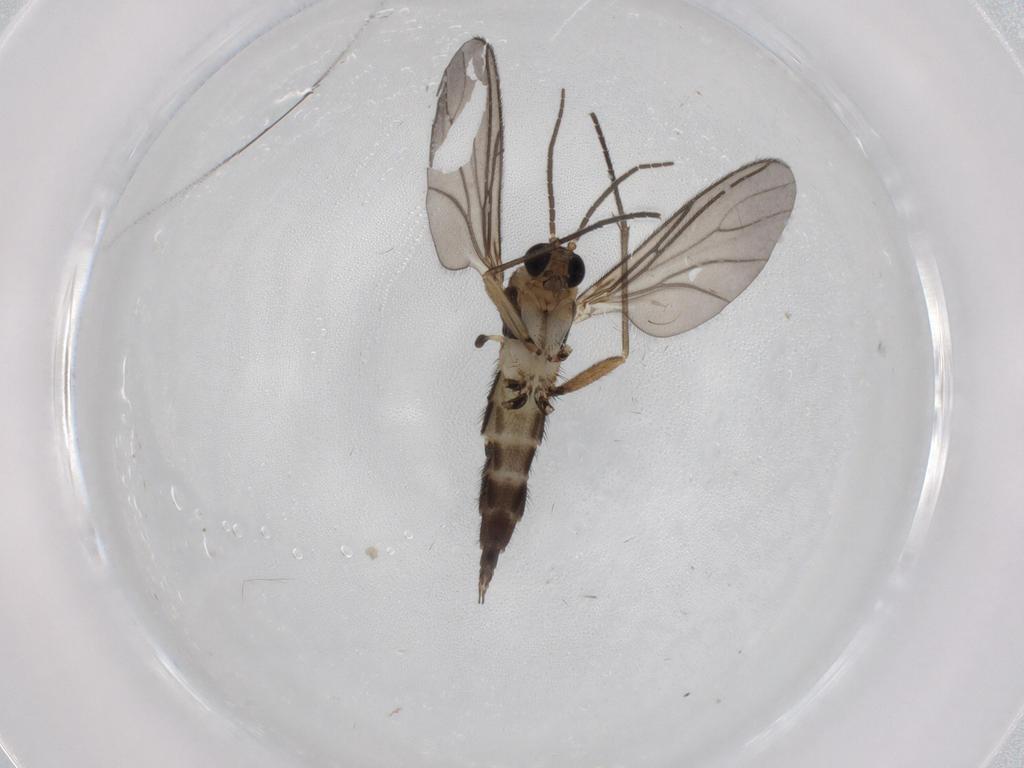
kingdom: Animalia
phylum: Arthropoda
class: Insecta
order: Diptera
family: Sciaridae
